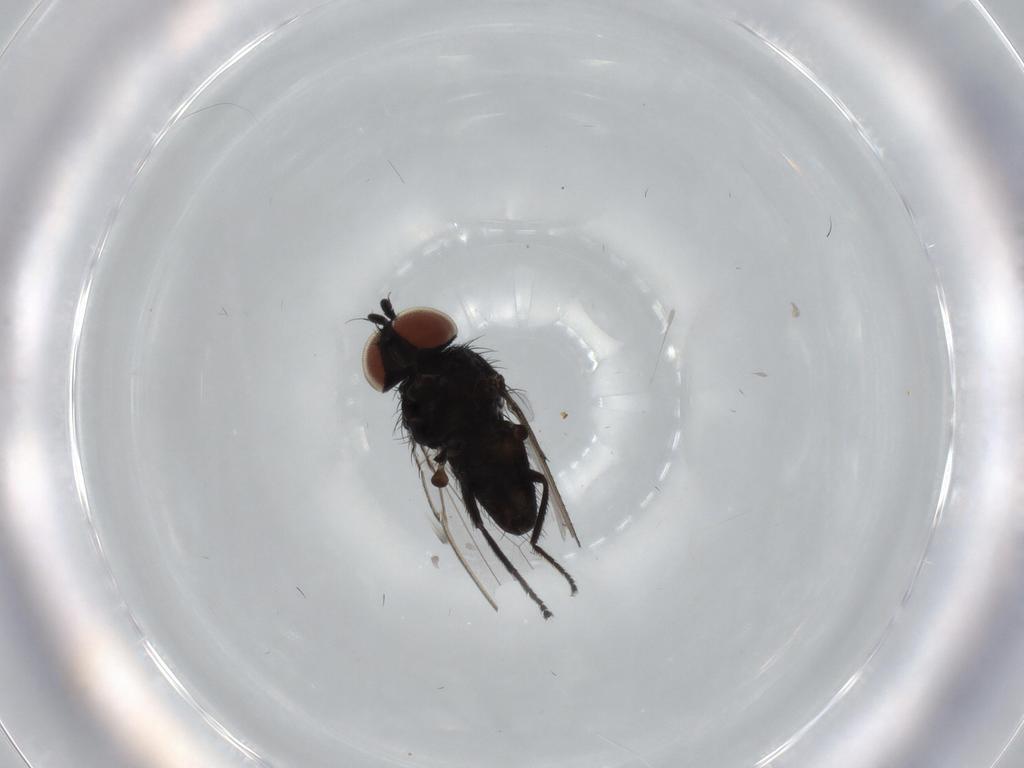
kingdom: Animalia
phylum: Arthropoda
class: Insecta
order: Diptera
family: Milichiidae
